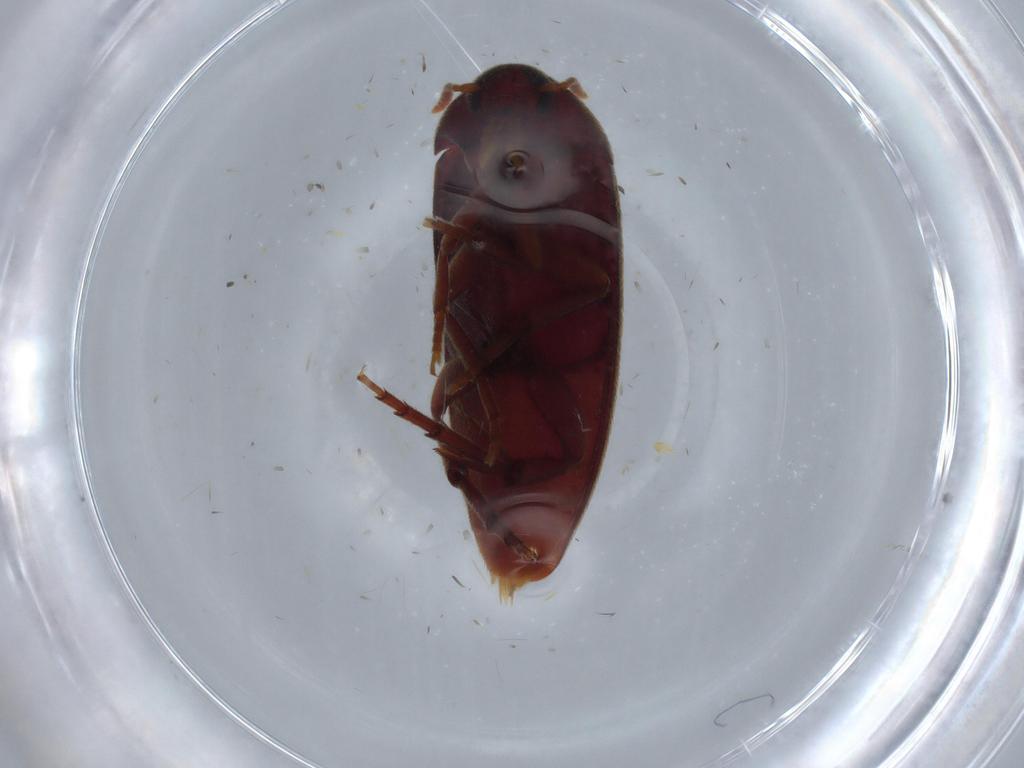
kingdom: Animalia
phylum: Arthropoda
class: Insecta
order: Coleoptera
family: Melandryidae
